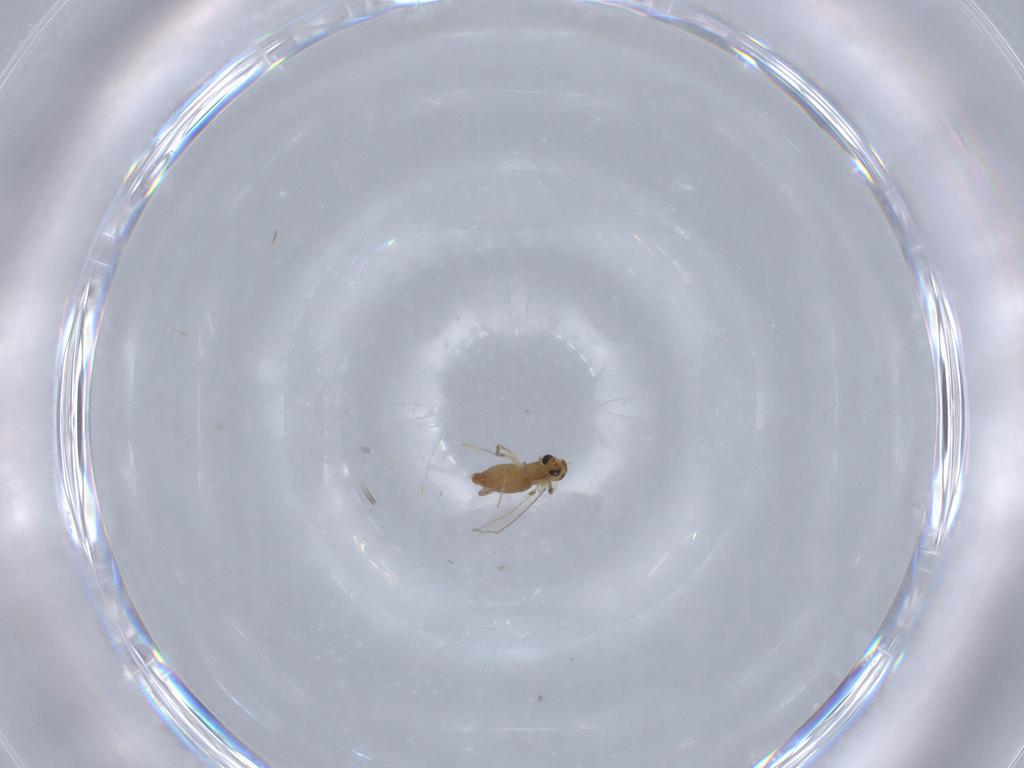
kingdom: Animalia
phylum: Arthropoda
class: Insecta
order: Diptera
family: Chironomidae
